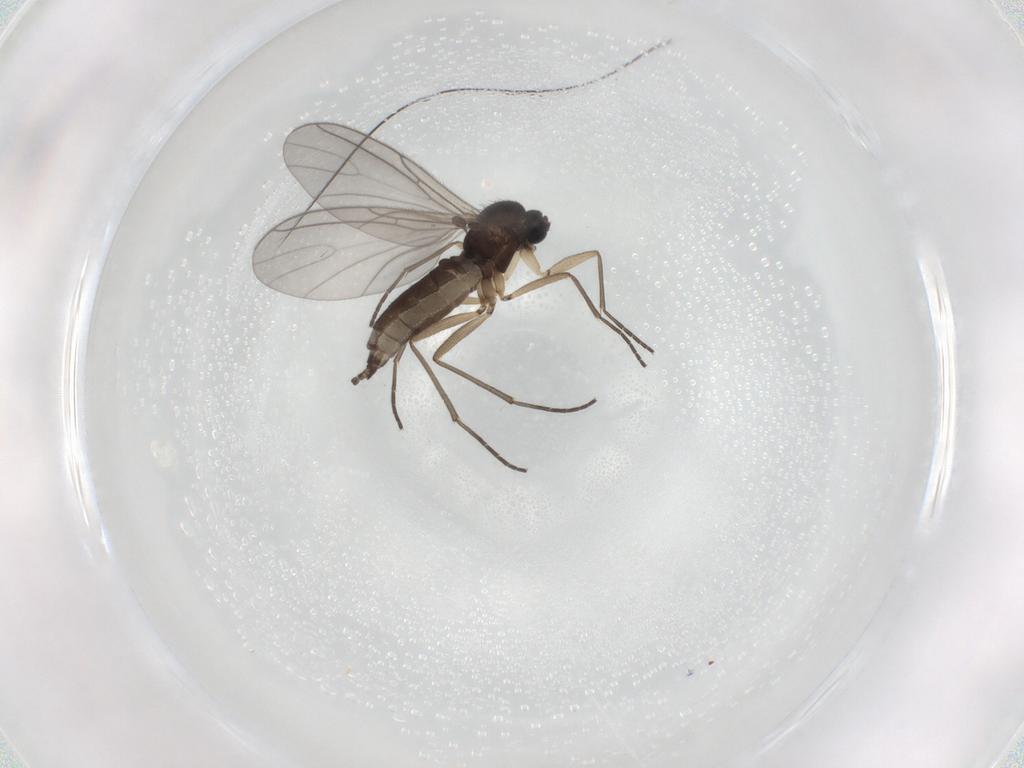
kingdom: Animalia
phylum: Arthropoda
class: Insecta
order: Diptera
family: Sciaridae
